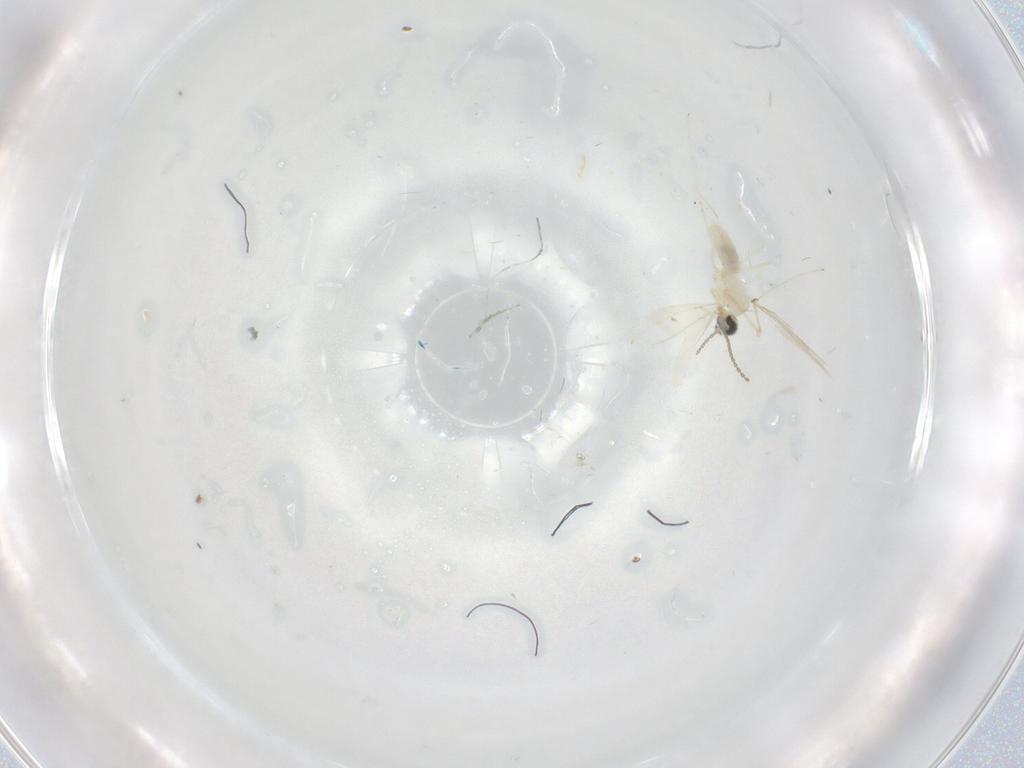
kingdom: Animalia
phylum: Arthropoda
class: Insecta
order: Diptera
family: Cecidomyiidae
